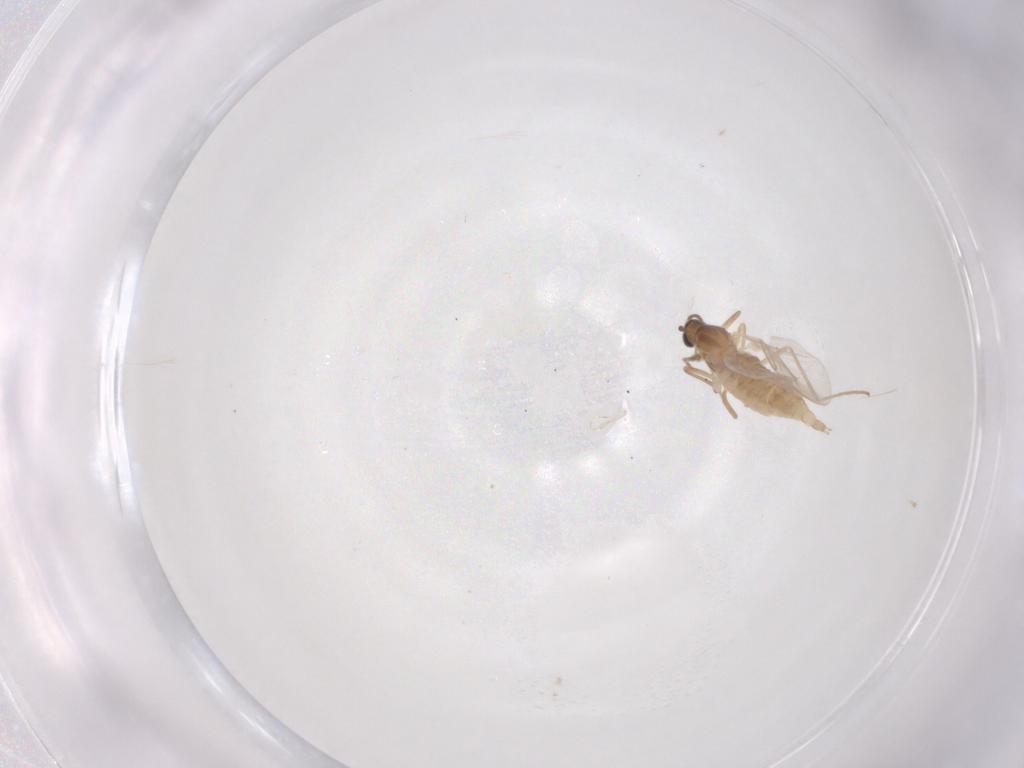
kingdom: Animalia
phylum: Arthropoda
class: Insecta
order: Diptera
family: Cecidomyiidae
